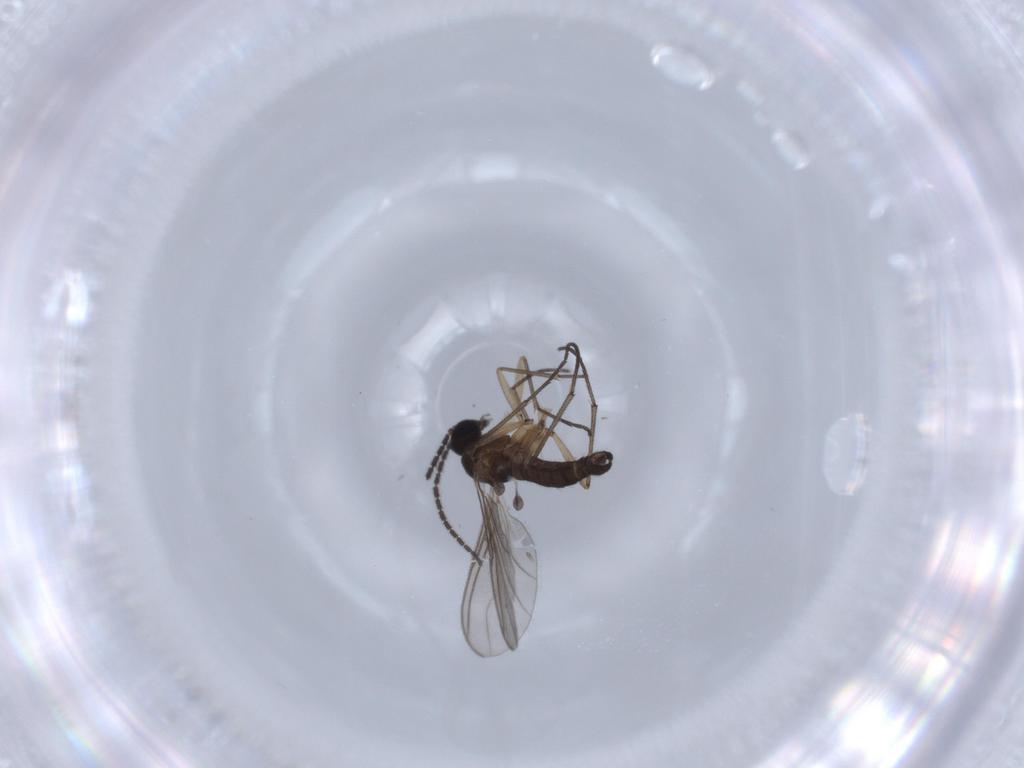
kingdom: Animalia
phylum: Arthropoda
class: Insecta
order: Diptera
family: Sciaridae
